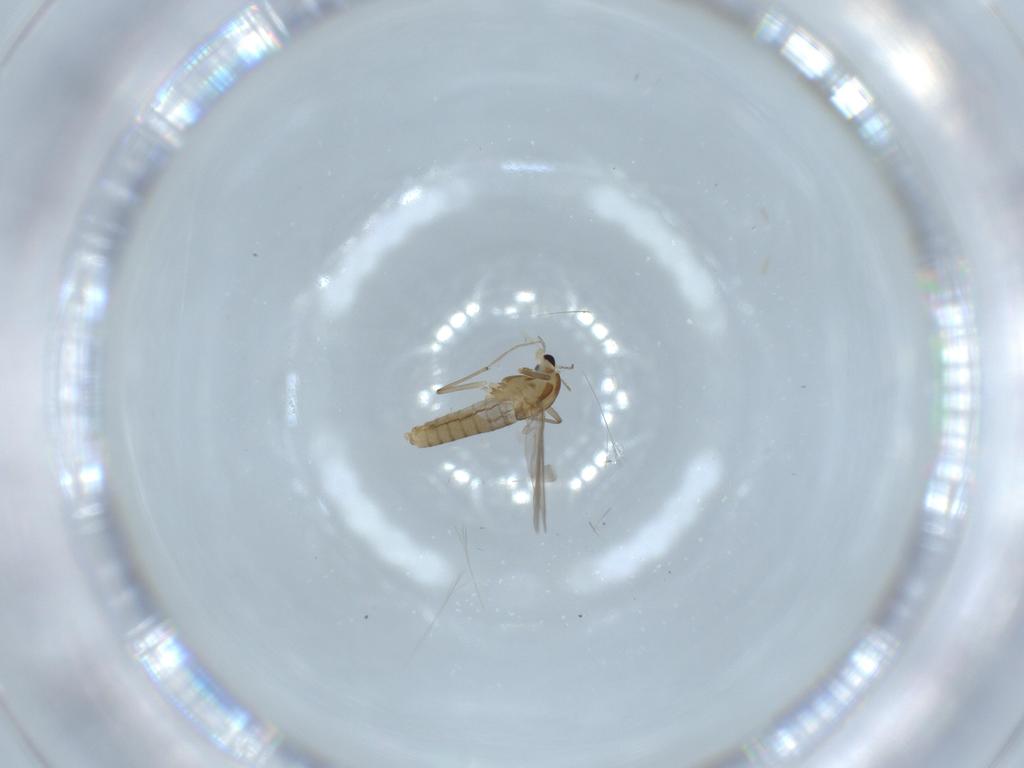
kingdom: Animalia
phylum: Arthropoda
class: Insecta
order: Diptera
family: Chironomidae
